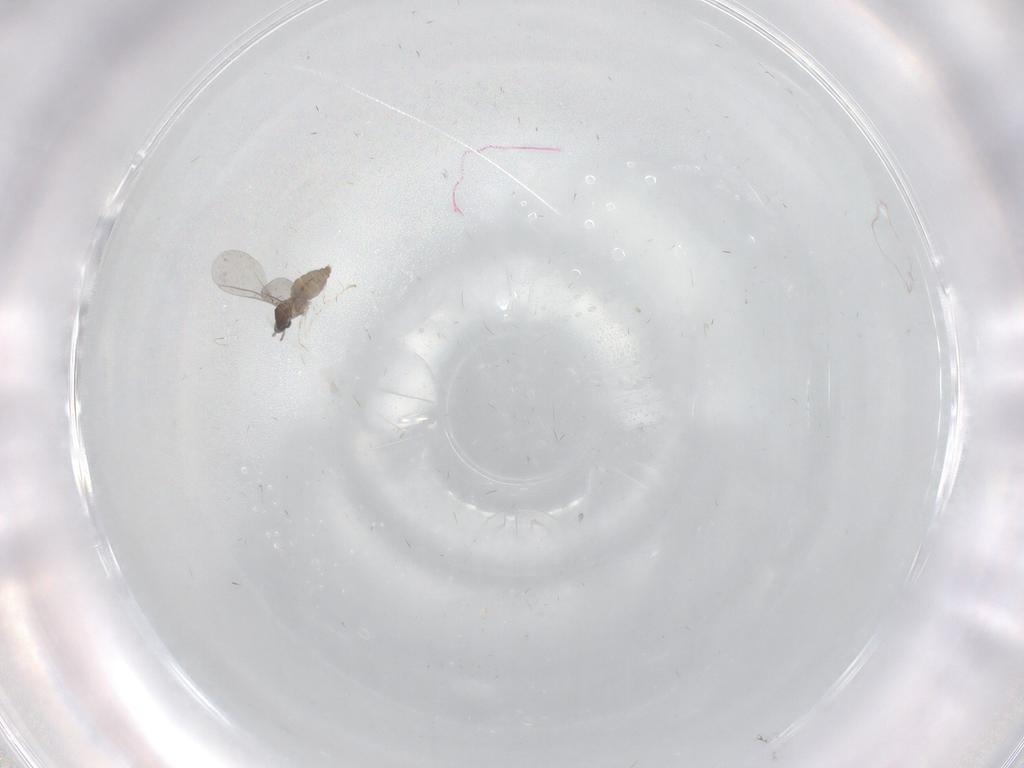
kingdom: Animalia
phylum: Arthropoda
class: Insecta
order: Diptera
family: Cecidomyiidae
